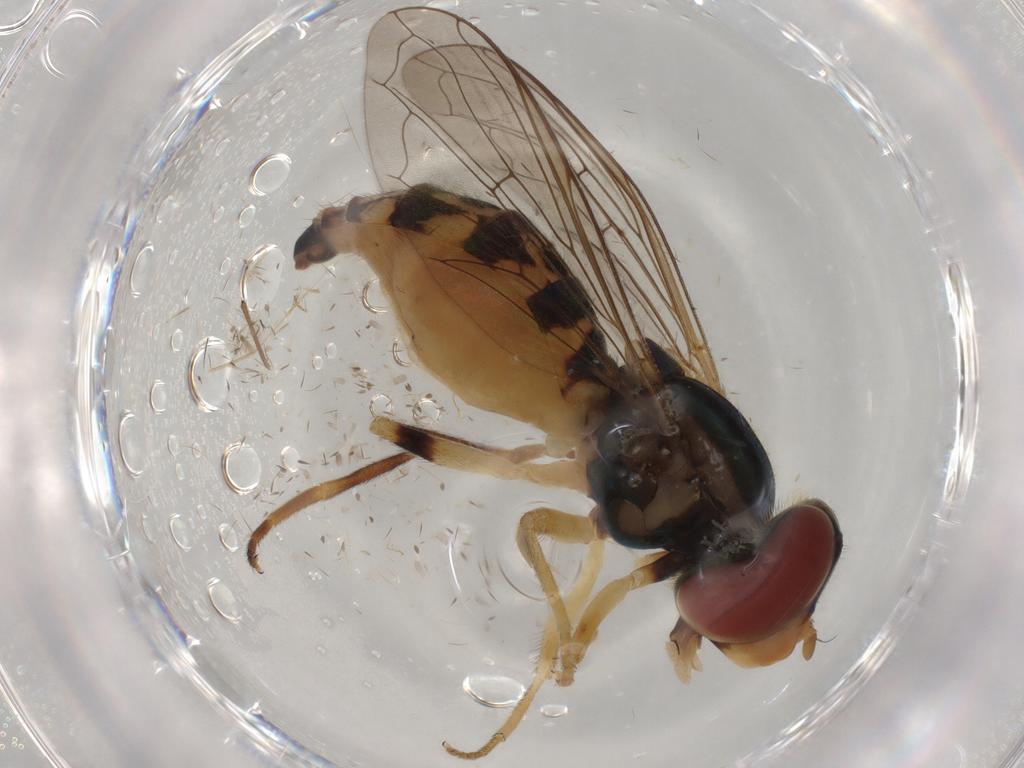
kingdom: Animalia
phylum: Arthropoda
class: Insecta
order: Diptera
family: Syrphidae
